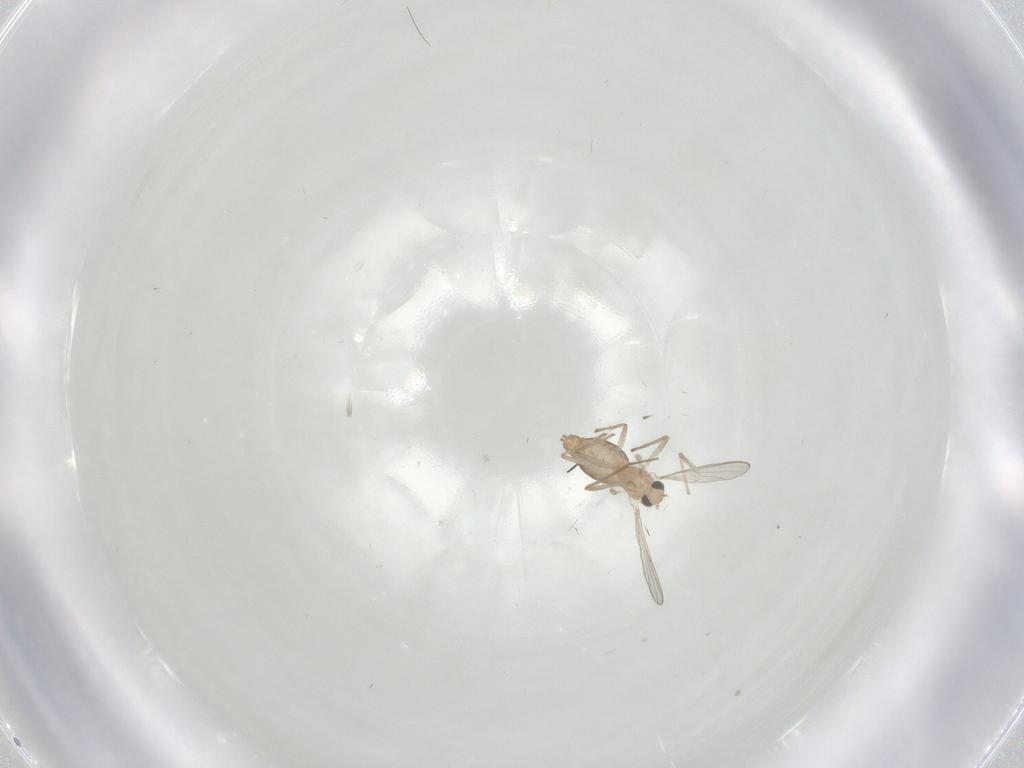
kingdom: Animalia
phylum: Arthropoda
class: Insecta
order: Diptera
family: Chironomidae
